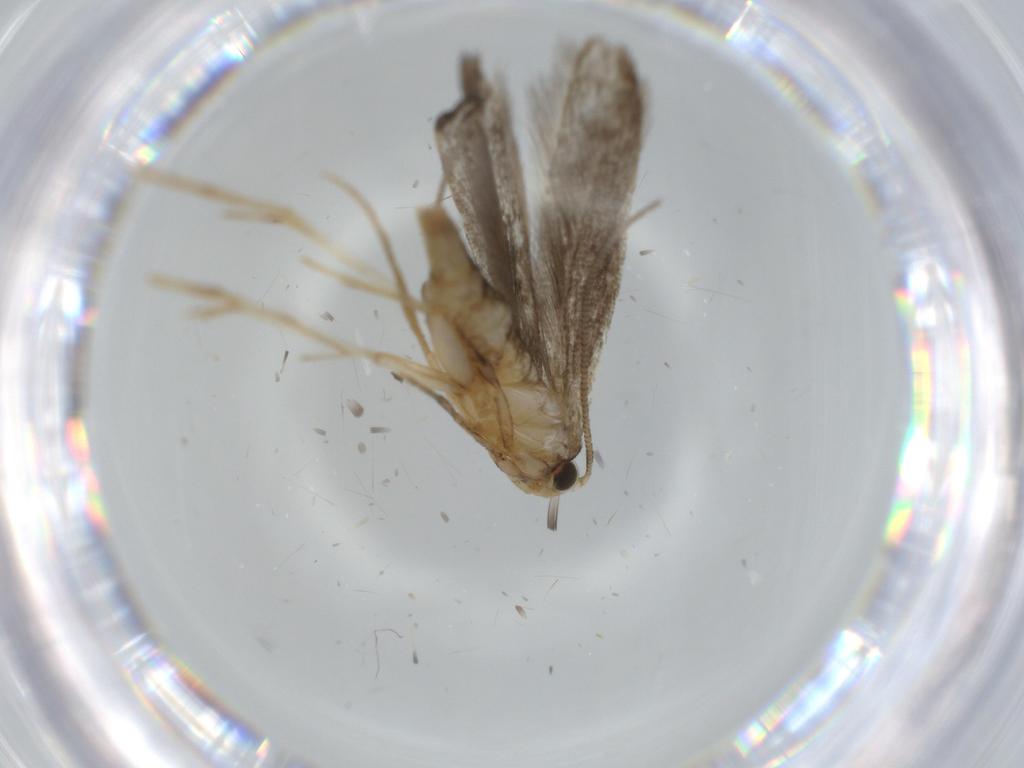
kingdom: Animalia
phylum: Arthropoda
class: Insecta
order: Lepidoptera
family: Tineidae
